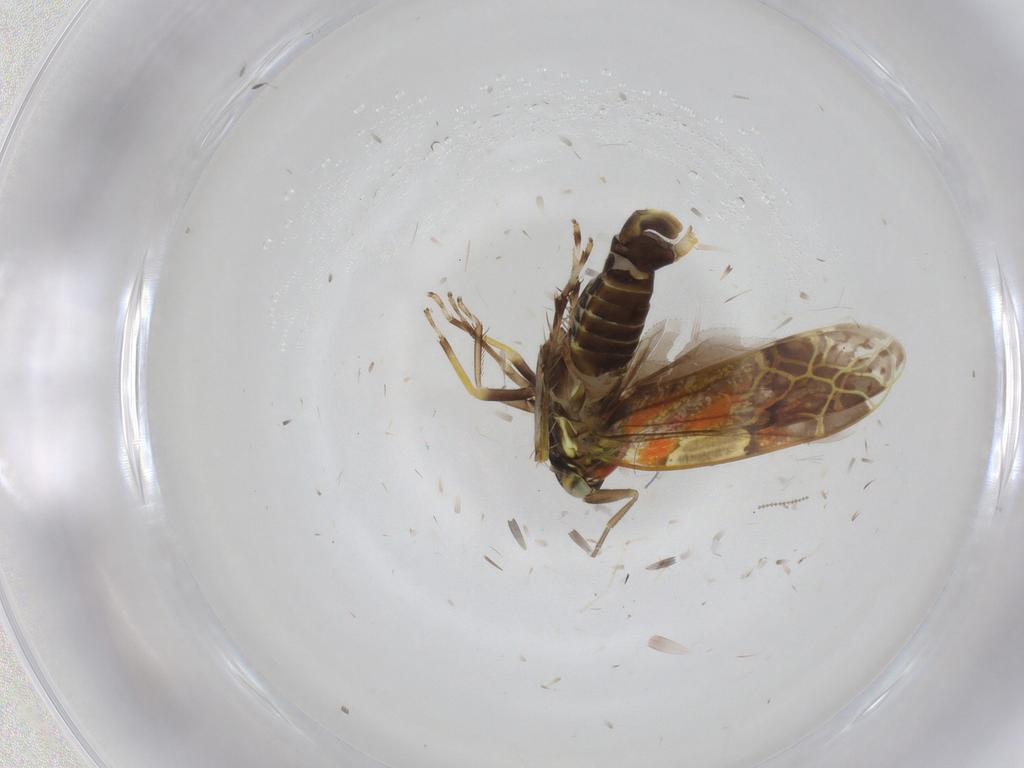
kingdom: Animalia
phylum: Arthropoda
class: Insecta
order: Hemiptera
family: Cicadellidae
